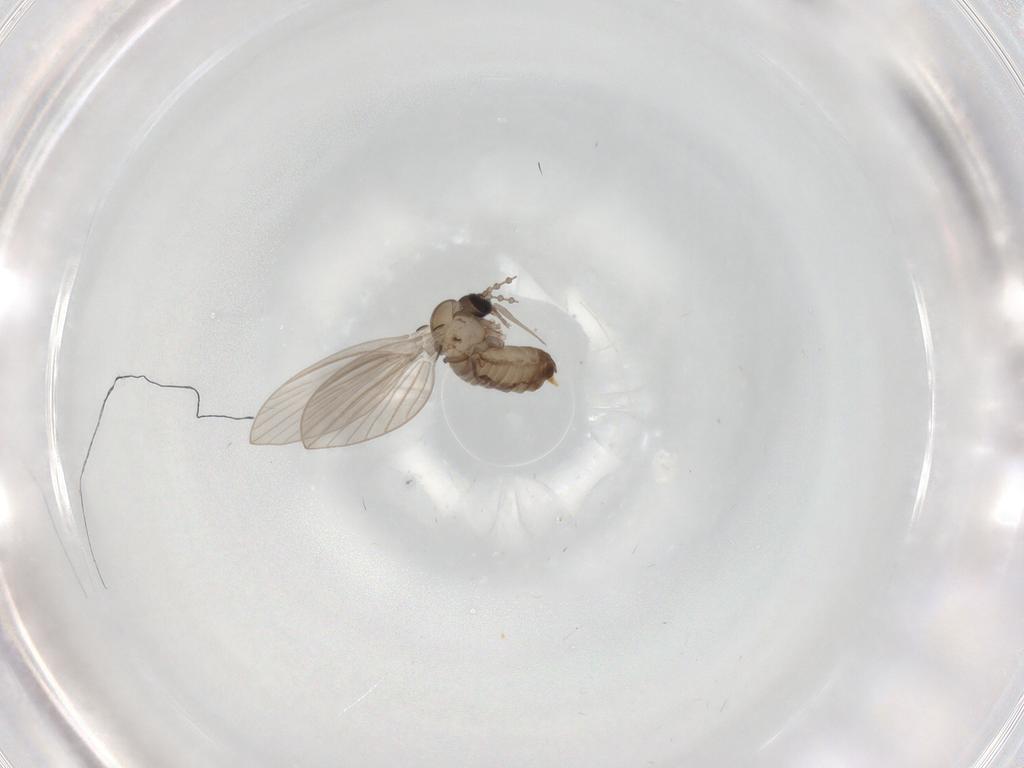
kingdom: Animalia
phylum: Arthropoda
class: Insecta
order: Diptera
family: Psychodidae
